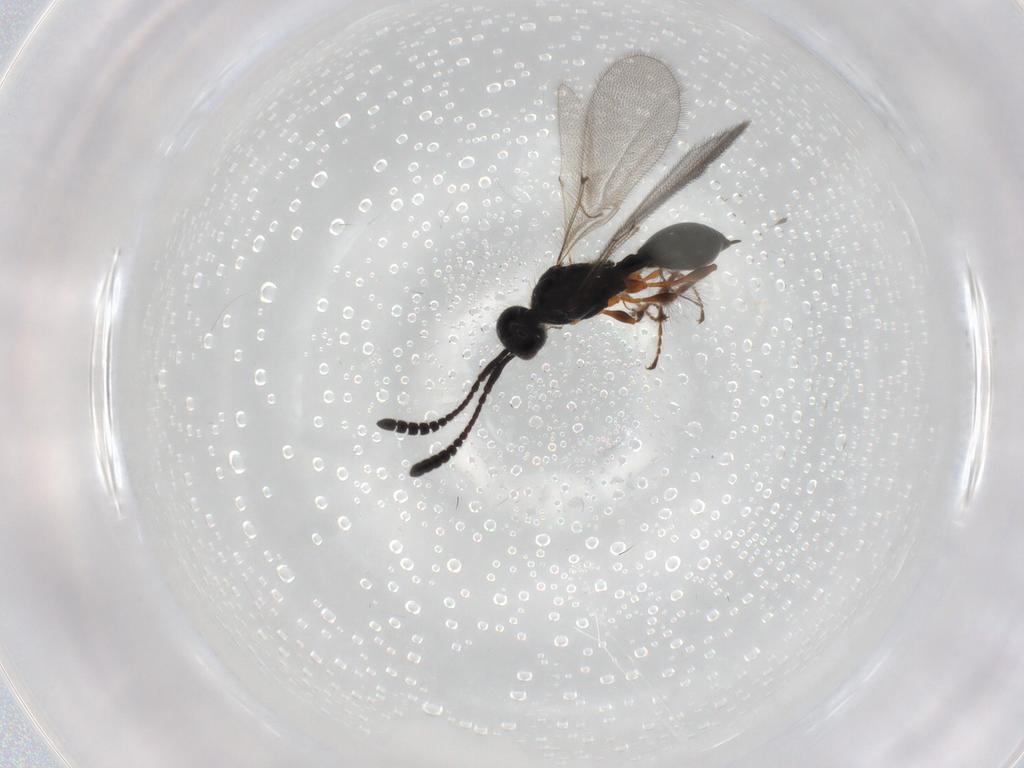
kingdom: Animalia
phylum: Arthropoda
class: Insecta
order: Hymenoptera
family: Diapriidae
